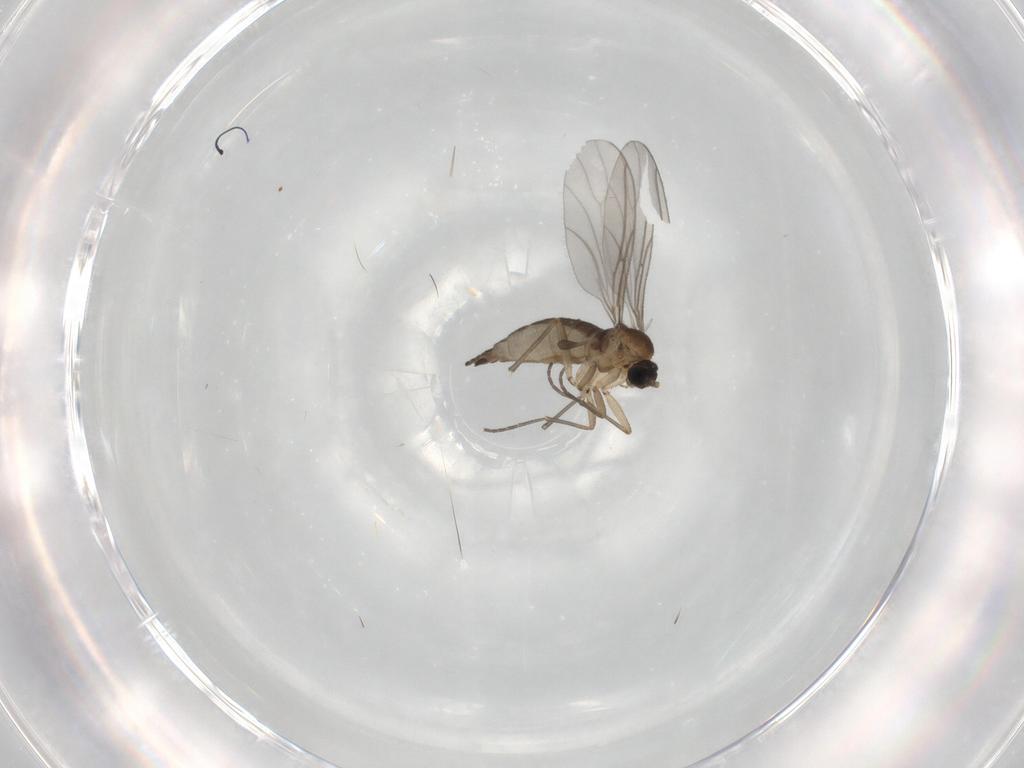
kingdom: Animalia
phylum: Arthropoda
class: Insecta
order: Diptera
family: Sciaridae
